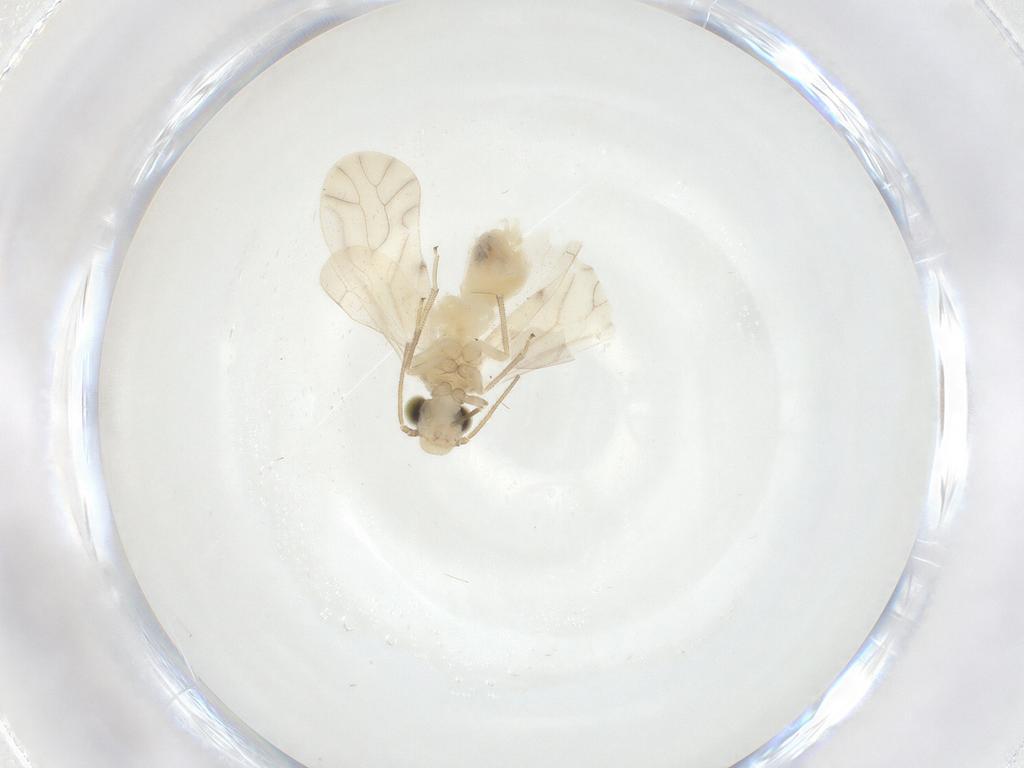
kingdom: Animalia
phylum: Arthropoda
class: Insecta
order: Psocodea
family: Caeciliusidae
